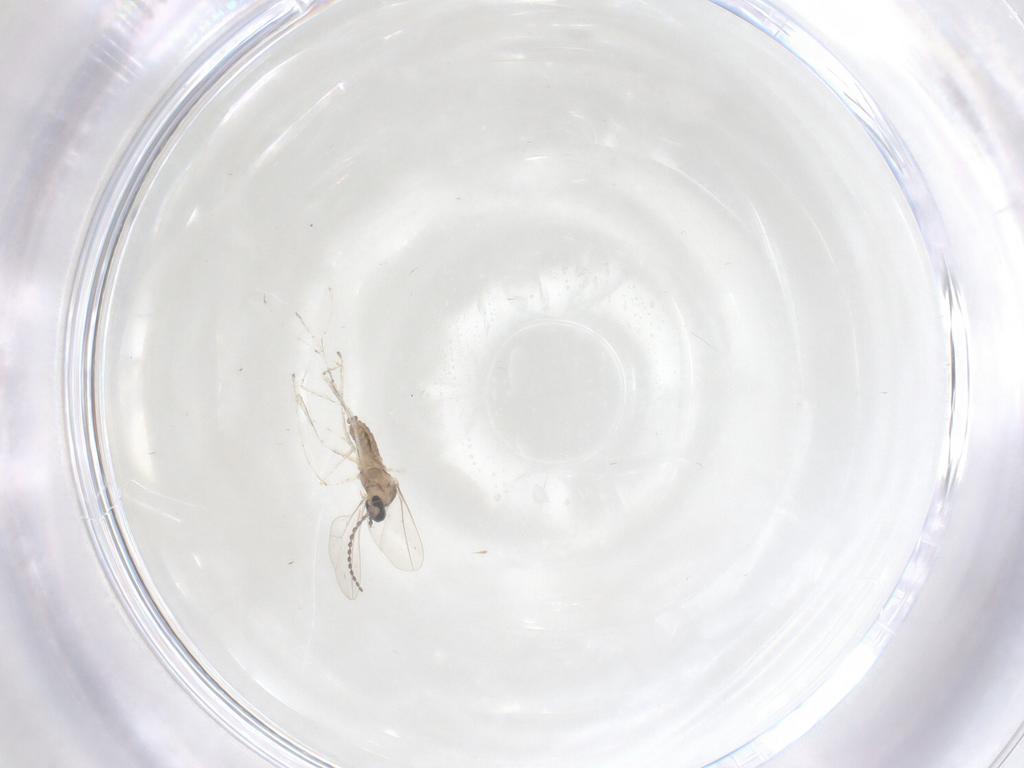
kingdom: Animalia
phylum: Arthropoda
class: Insecta
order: Diptera
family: Cecidomyiidae
